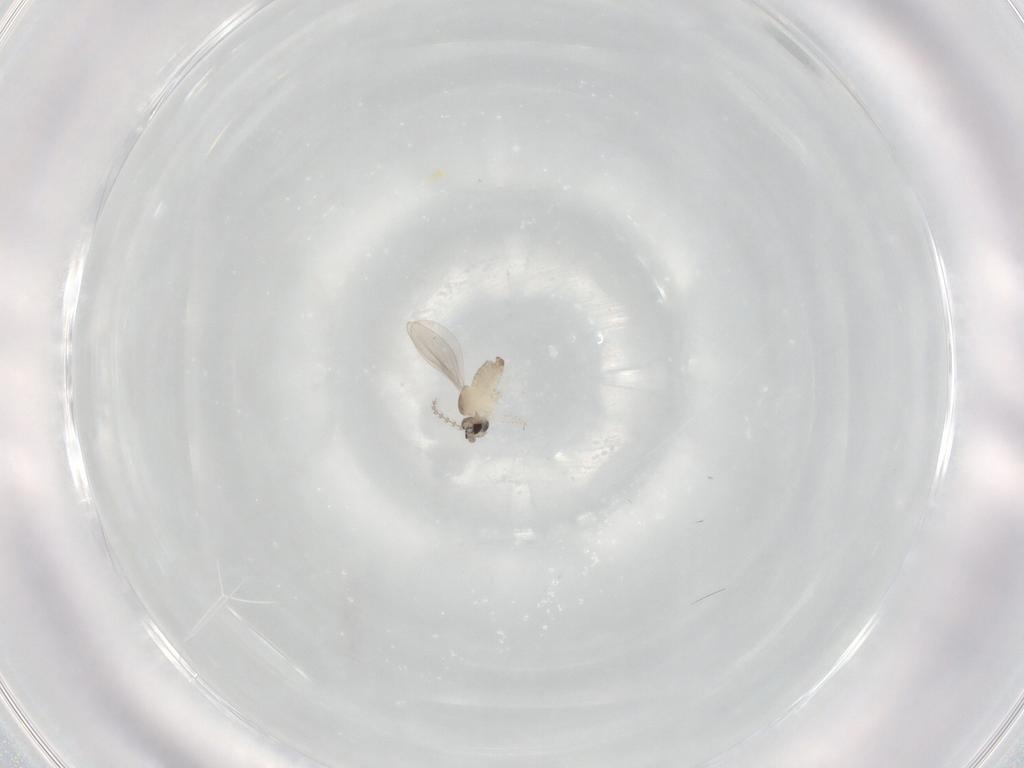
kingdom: Animalia
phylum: Arthropoda
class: Insecta
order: Diptera
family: Cecidomyiidae
